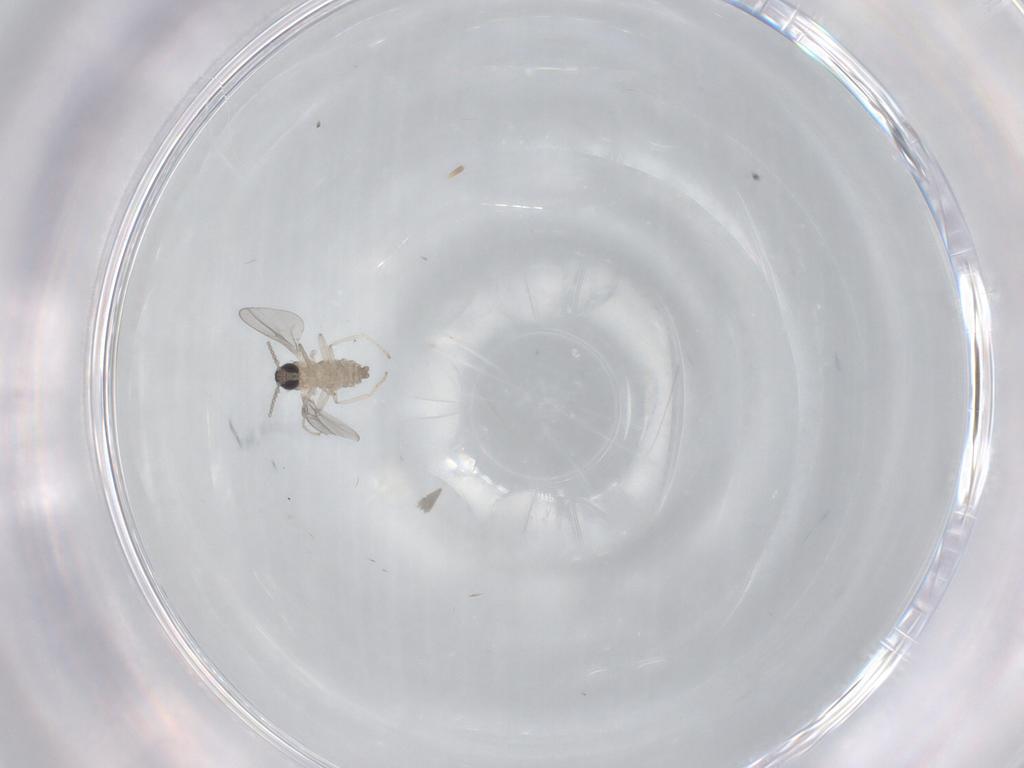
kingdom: Animalia
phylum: Arthropoda
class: Insecta
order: Diptera
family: Cecidomyiidae
